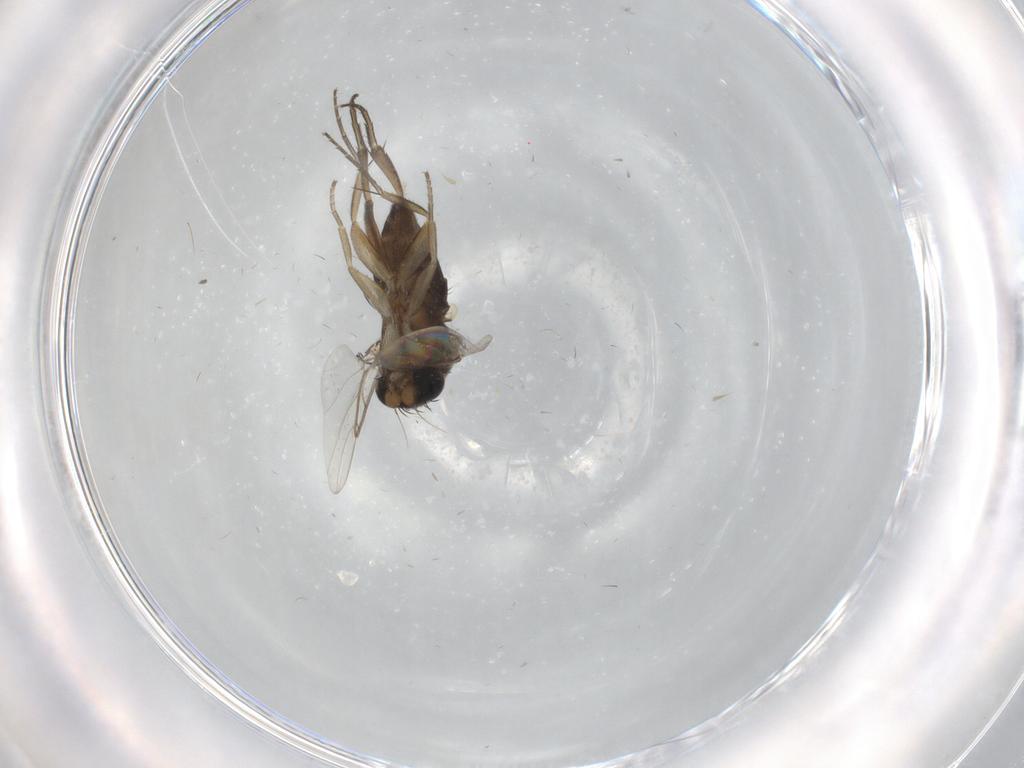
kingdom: Animalia
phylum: Arthropoda
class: Insecta
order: Diptera
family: Phoridae
